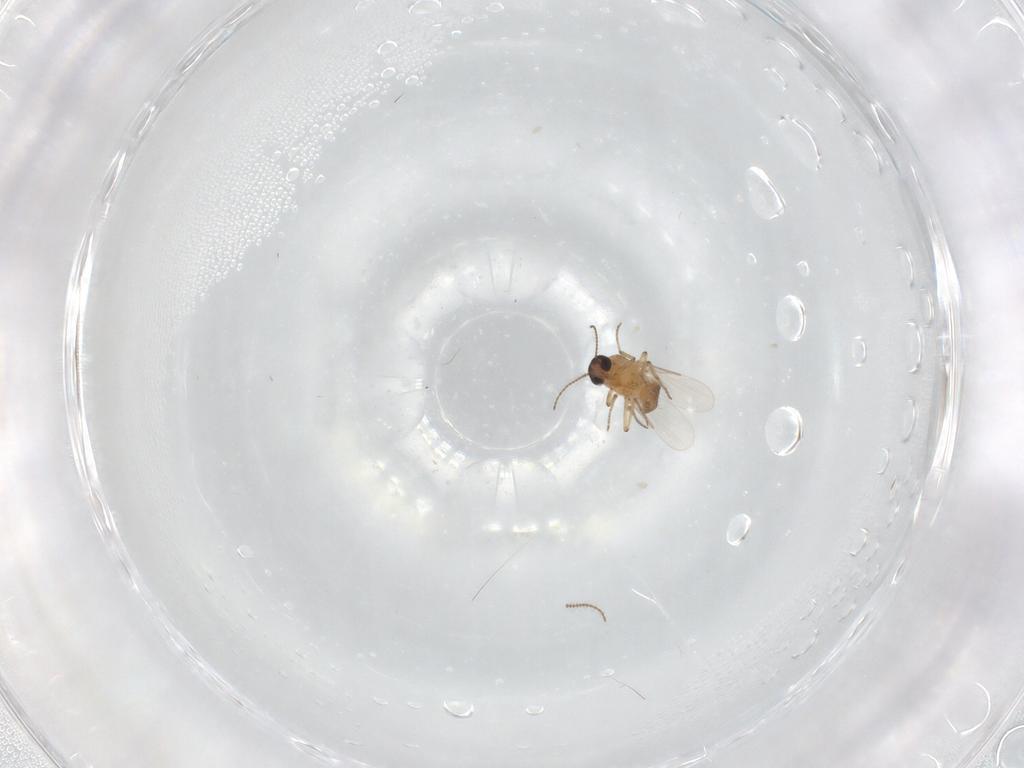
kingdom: Animalia
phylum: Arthropoda
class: Insecta
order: Diptera
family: Ceratopogonidae
